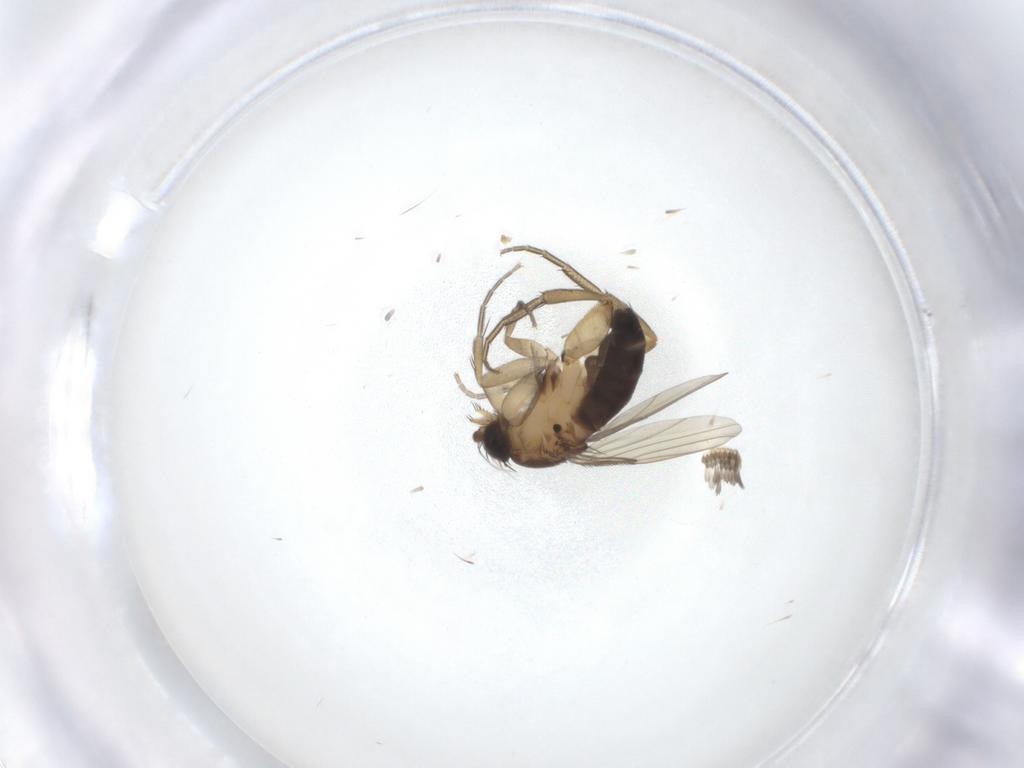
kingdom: Animalia
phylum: Arthropoda
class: Insecta
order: Diptera
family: Phoridae
